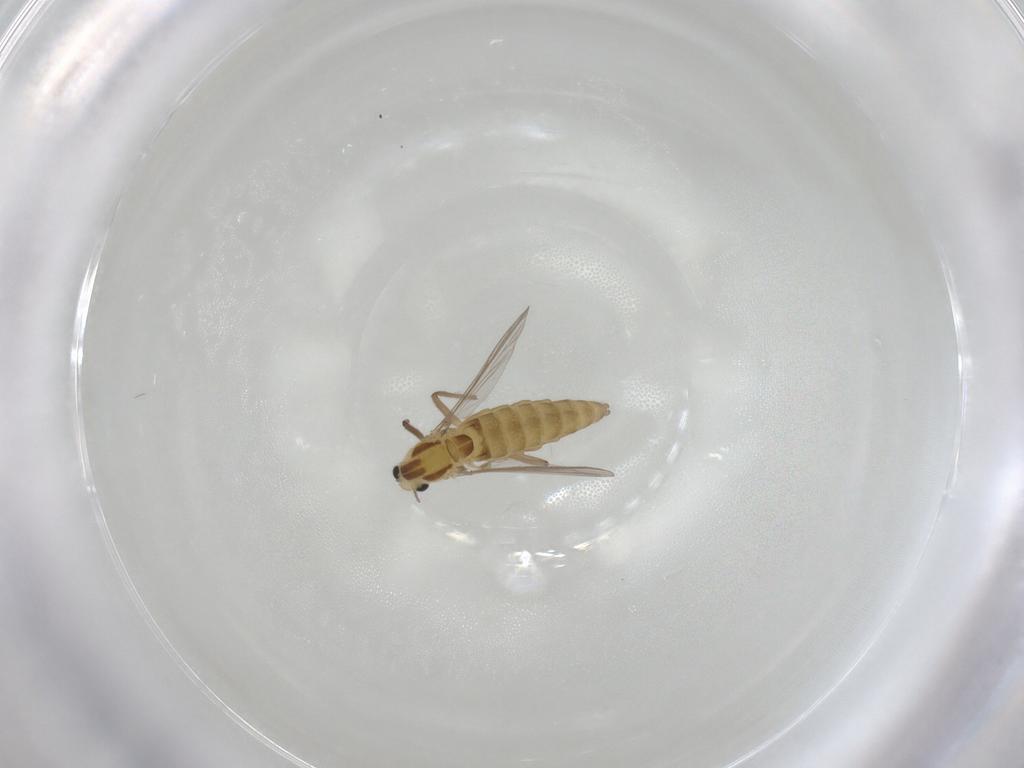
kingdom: Animalia
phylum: Arthropoda
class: Insecta
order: Diptera
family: Chironomidae
